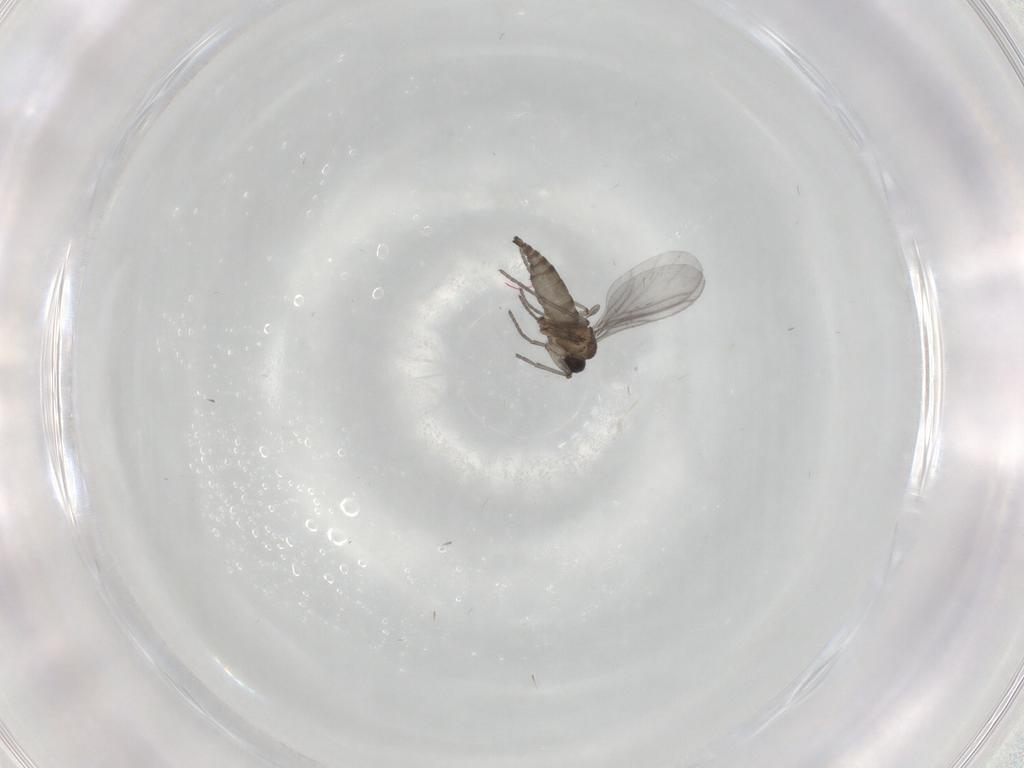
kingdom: Animalia
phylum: Arthropoda
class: Insecta
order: Diptera
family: Sciaridae
